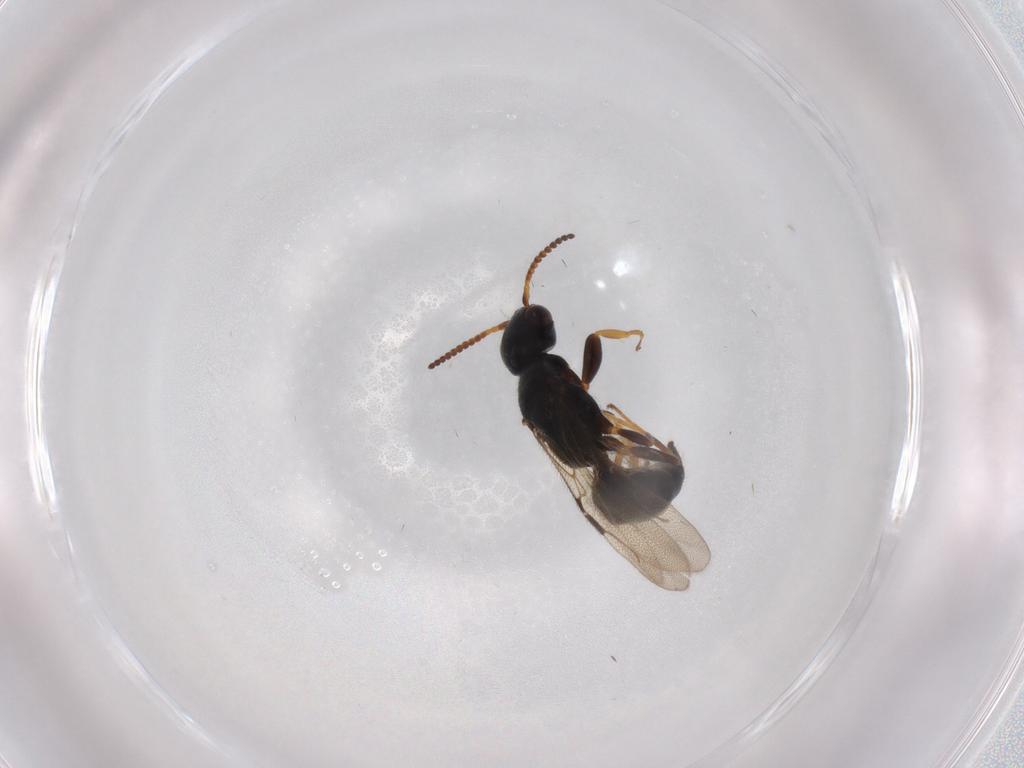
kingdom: Animalia
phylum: Arthropoda
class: Insecta
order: Hymenoptera
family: Bethylidae
